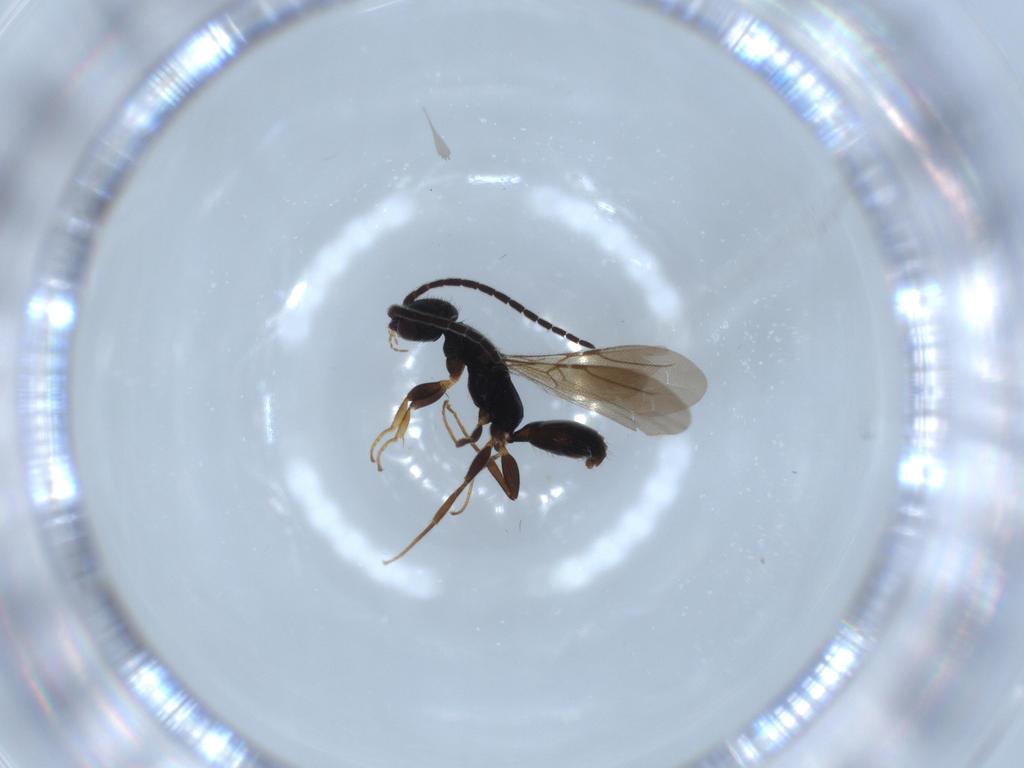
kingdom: Animalia
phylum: Arthropoda
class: Insecta
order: Hymenoptera
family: Bethylidae
